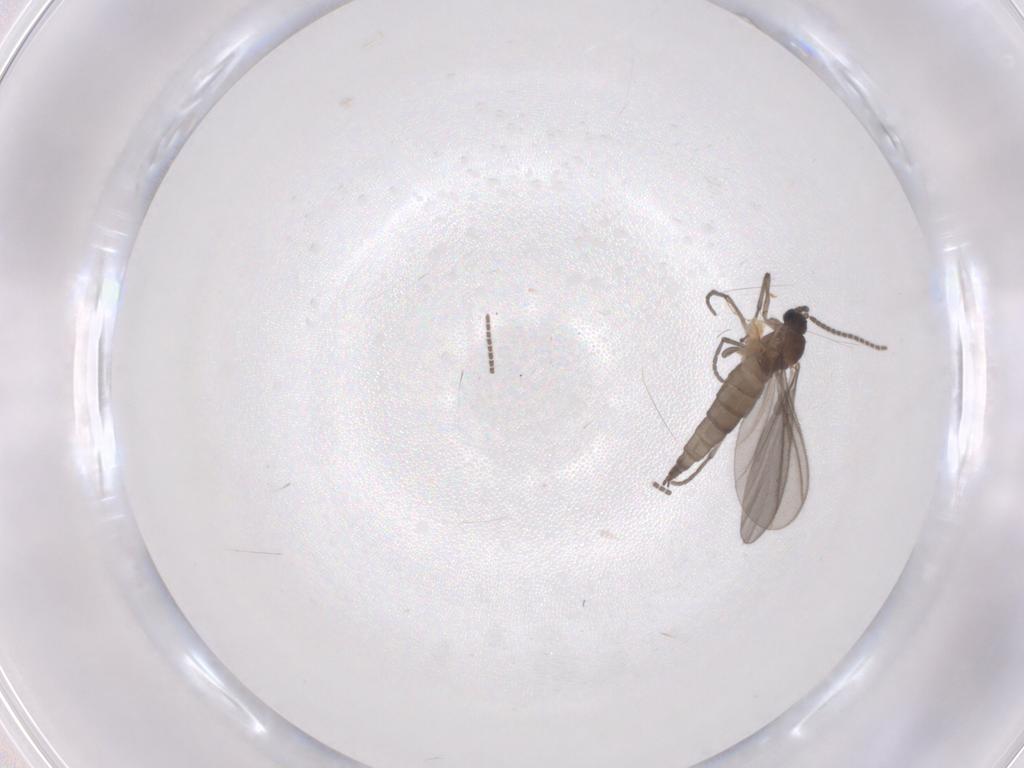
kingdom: Animalia
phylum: Arthropoda
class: Insecta
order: Diptera
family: Sciaridae
